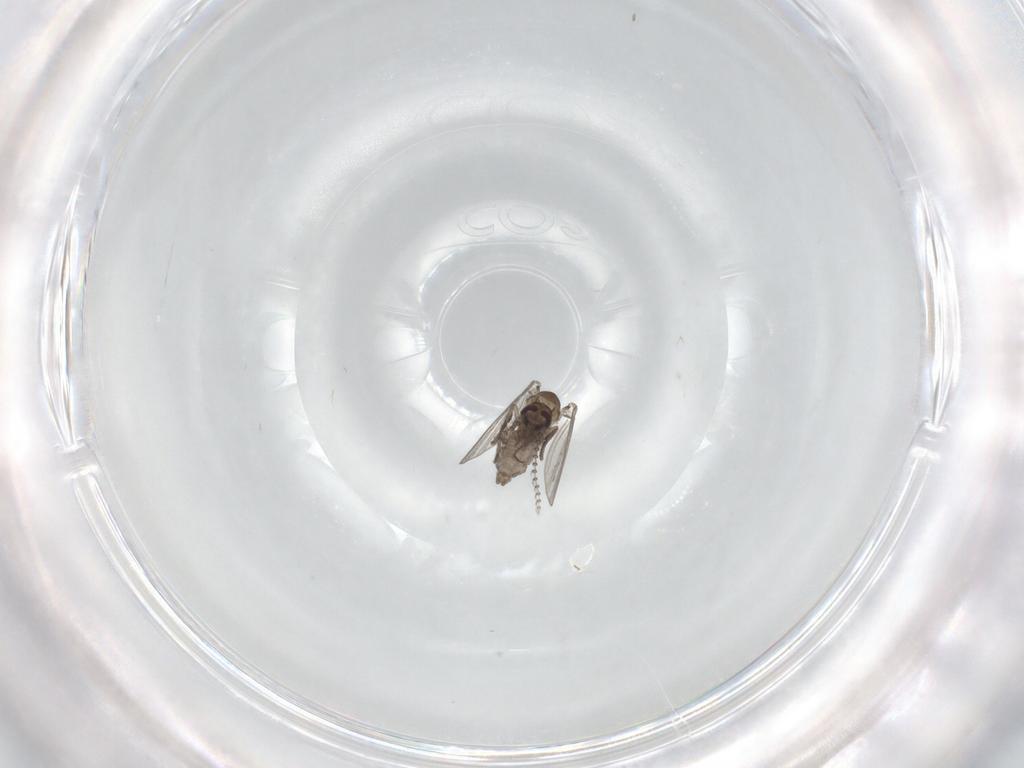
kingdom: Animalia
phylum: Arthropoda
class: Insecta
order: Diptera
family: Psychodidae
